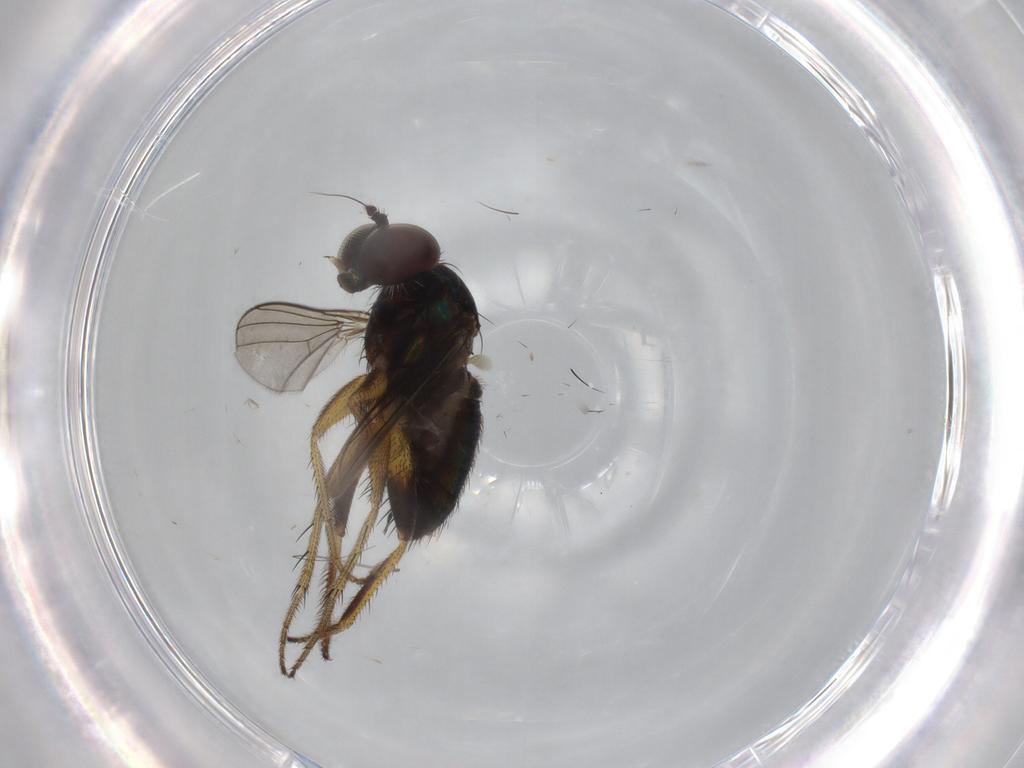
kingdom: Animalia
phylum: Arthropoda
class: Insecta
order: Diptera
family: Dolichopodidae
